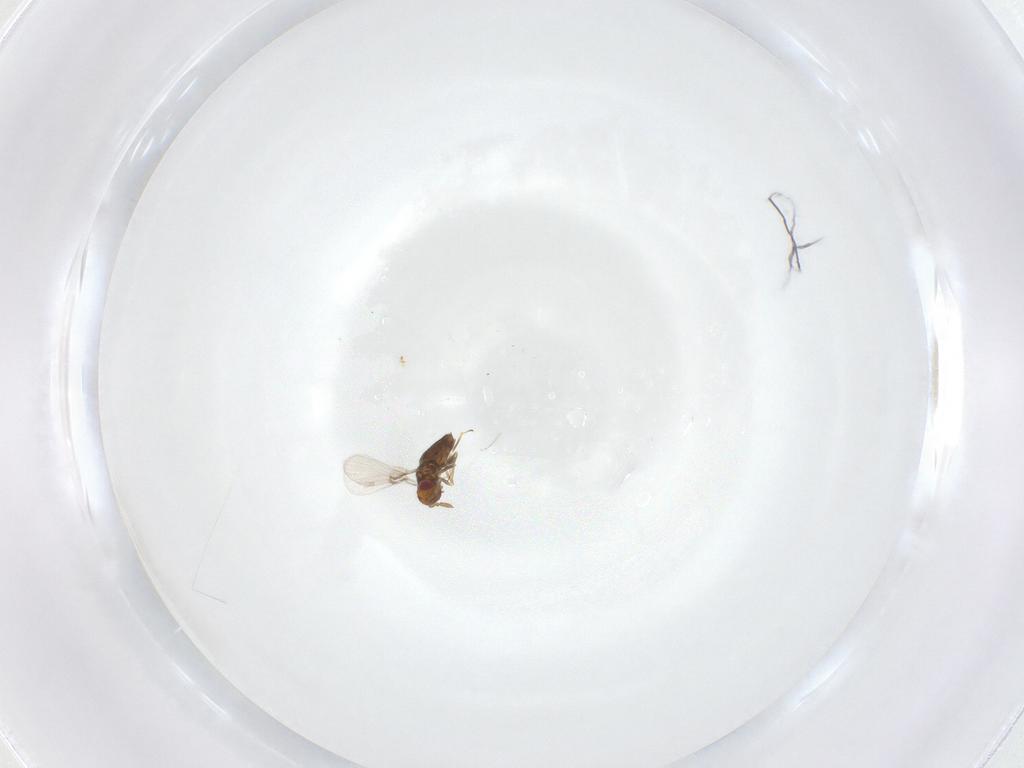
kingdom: Animalia
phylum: Arthropoda
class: Insecta
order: Hymenoptera
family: Agaonidae
